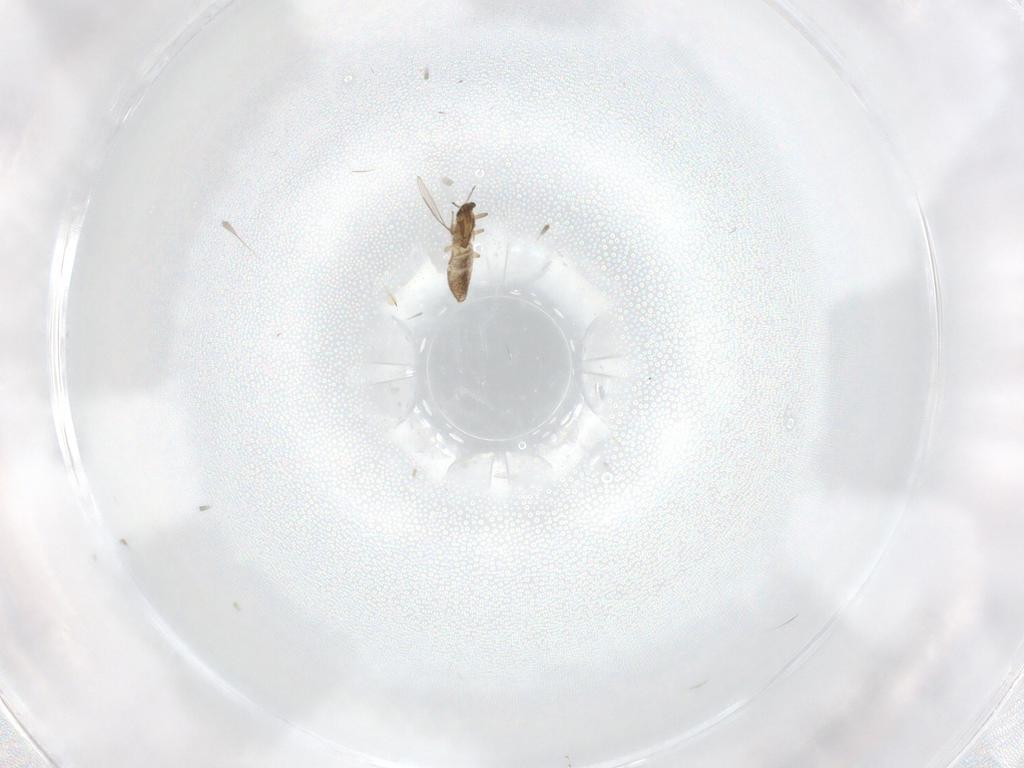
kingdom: Animalia
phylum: Arthropoda
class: Insecta
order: Diptera
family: Chironomidae
